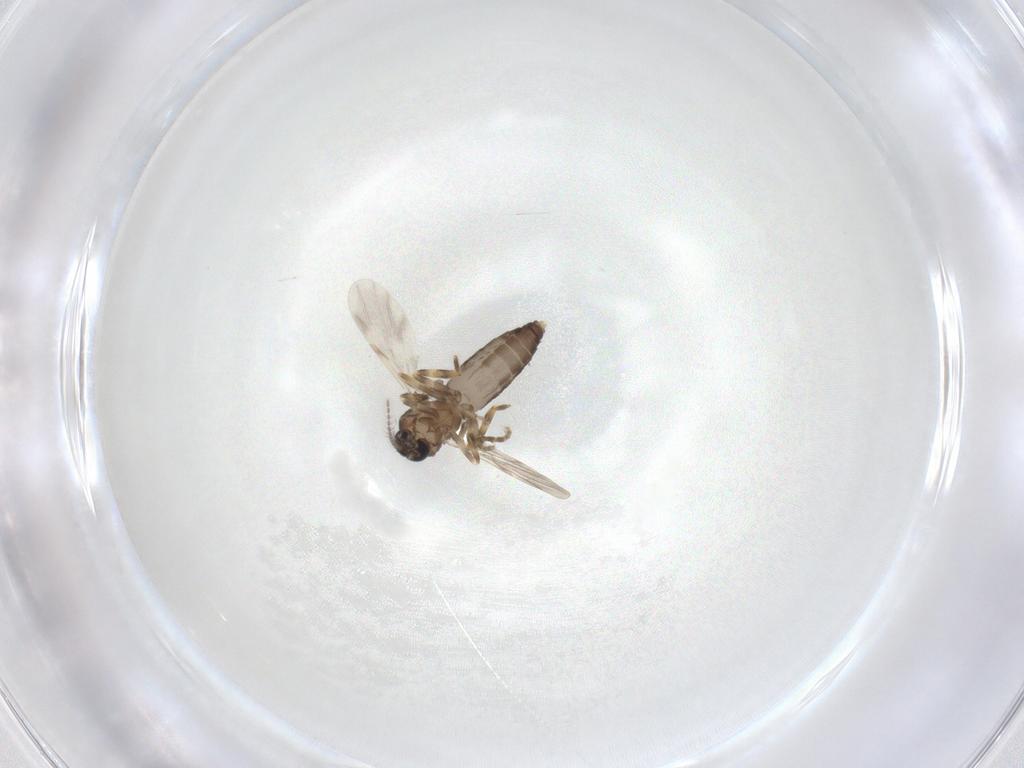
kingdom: Animalia
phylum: Arthropoda
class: Insecta
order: Diptera
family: Ceratopogonidae
